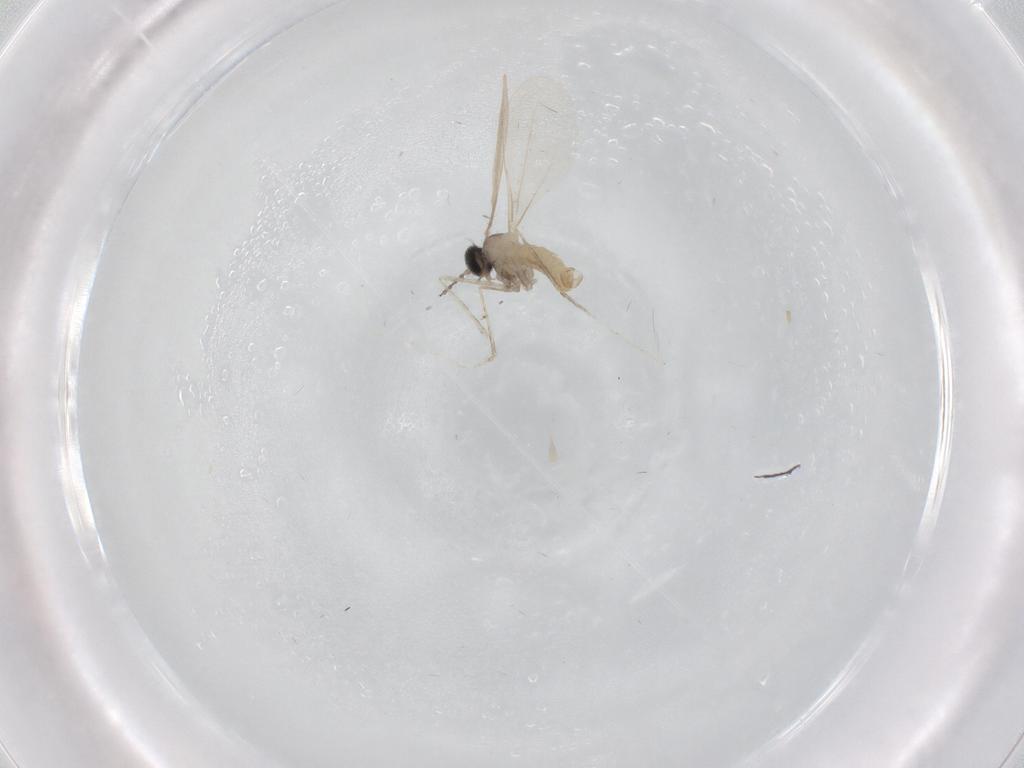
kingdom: Animalia
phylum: Arthropoda
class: Insecta
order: Diptera
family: Cecidomyiidae
